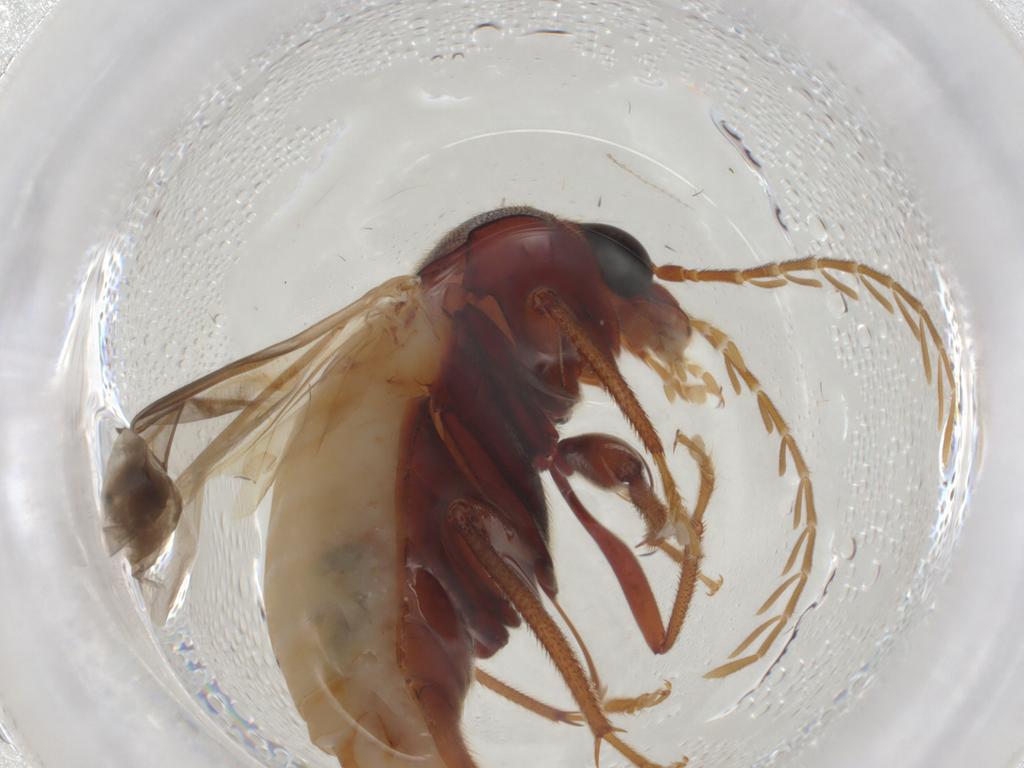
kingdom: Animalia
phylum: Arthropoda
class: Insecta
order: Coleoptera
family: Ptilodactylidae
